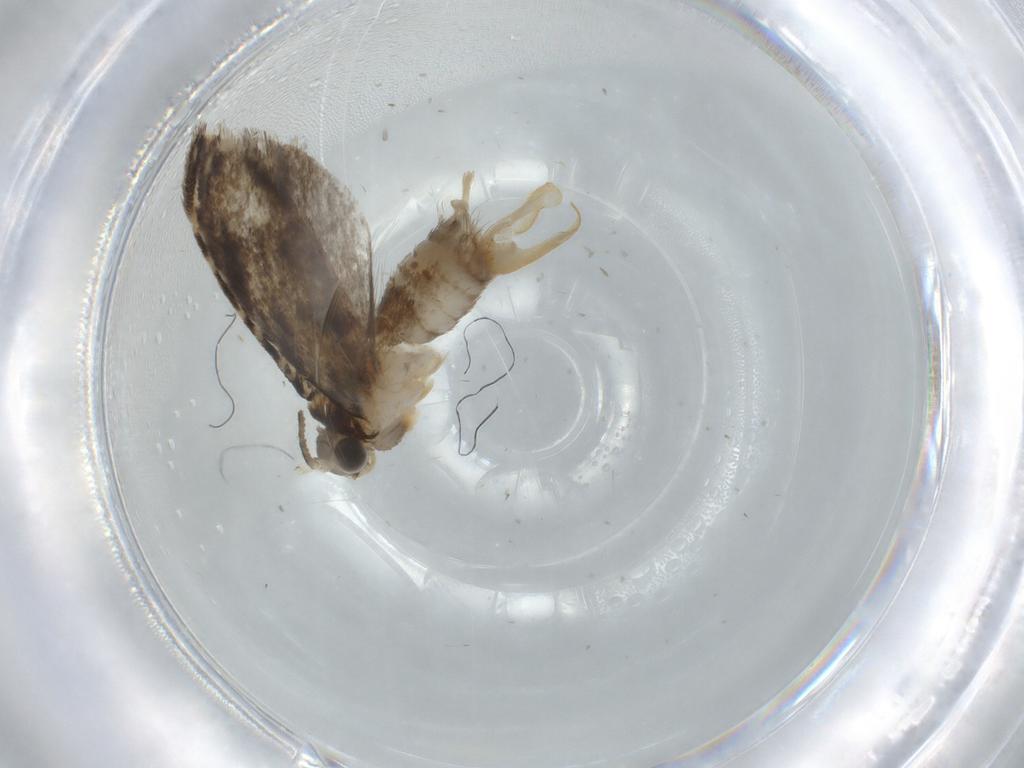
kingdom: Animalia
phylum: Arthropoda
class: Insecta
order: Lepidoptera
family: Tineidae
